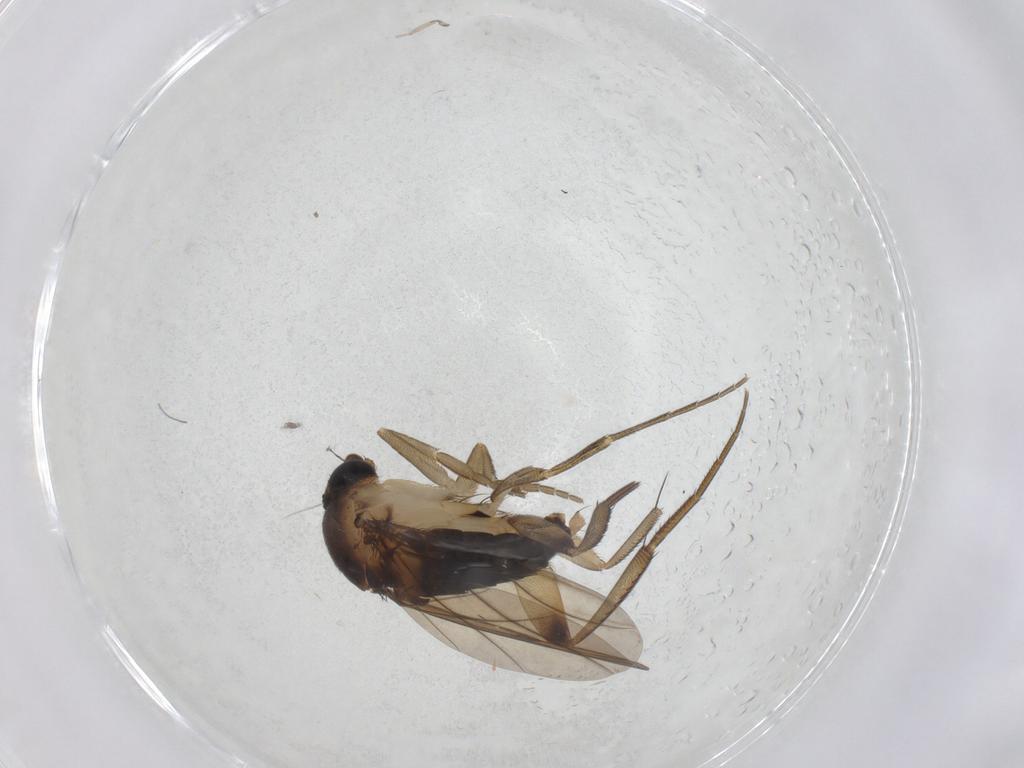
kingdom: Animalia
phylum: Arthropoda
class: Insecta
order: Diptera
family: Phoridae
